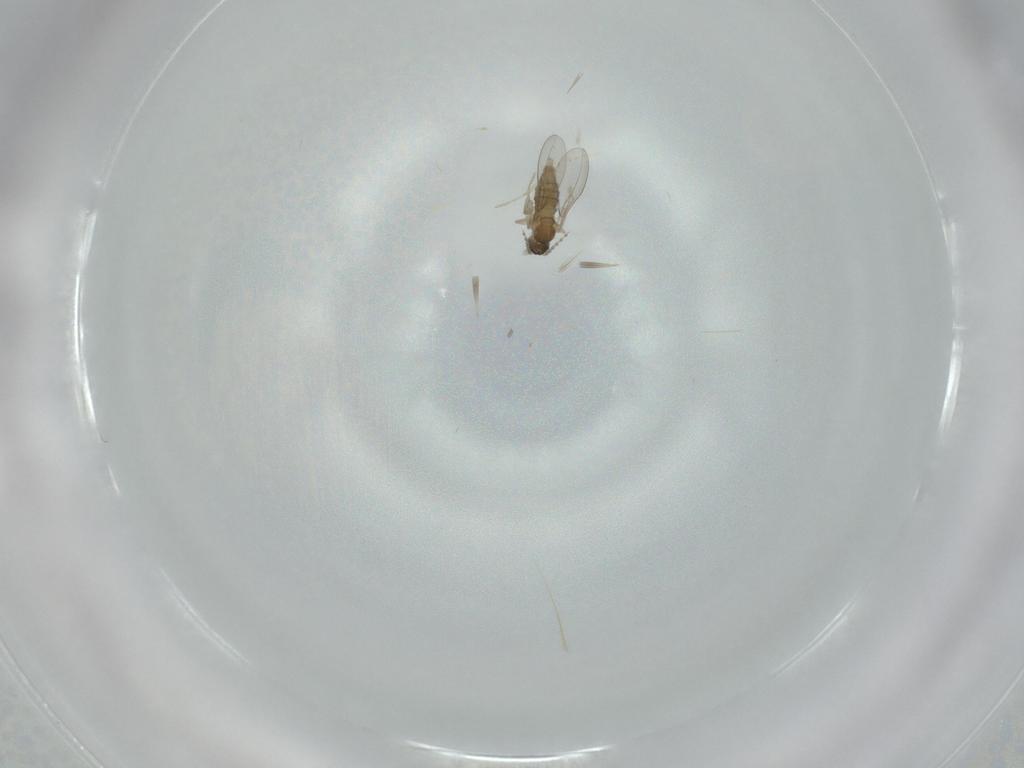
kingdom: Animalia
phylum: Arthropoda
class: Insecta
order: Diptera
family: Cecidomyiidae
